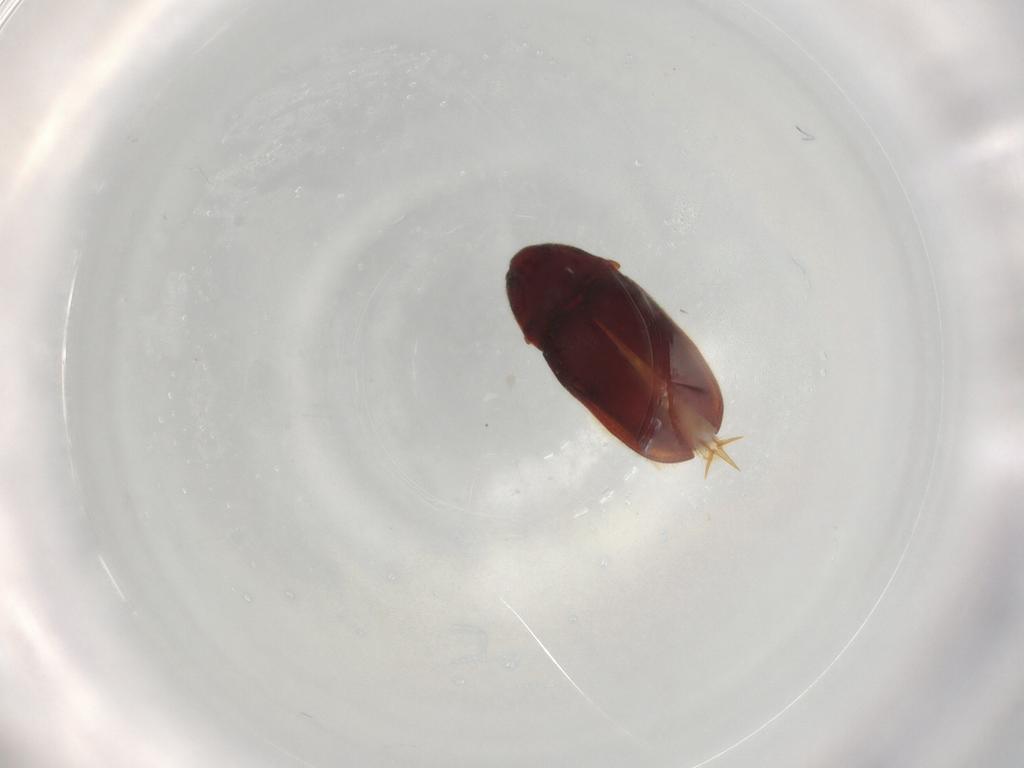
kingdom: Animalia
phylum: Arthropoda
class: Insecta
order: Coleoptera
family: Throscidae
